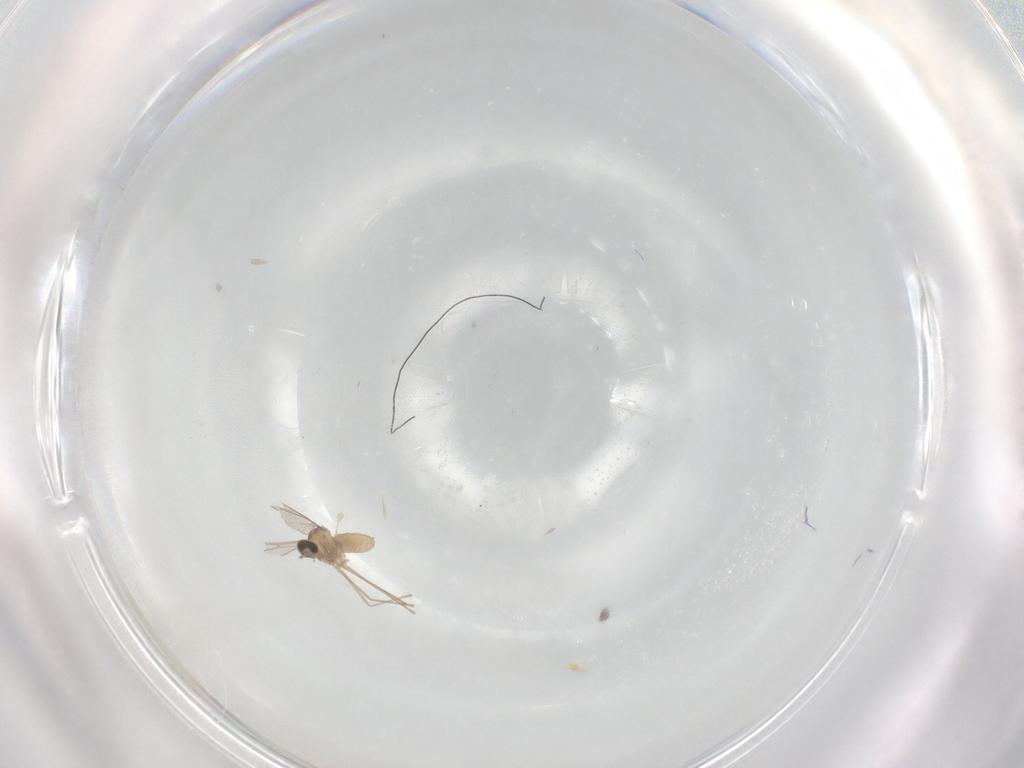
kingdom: Animalia
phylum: Arthropoda
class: Insecta
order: Diptera
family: Cecidomyiidae
